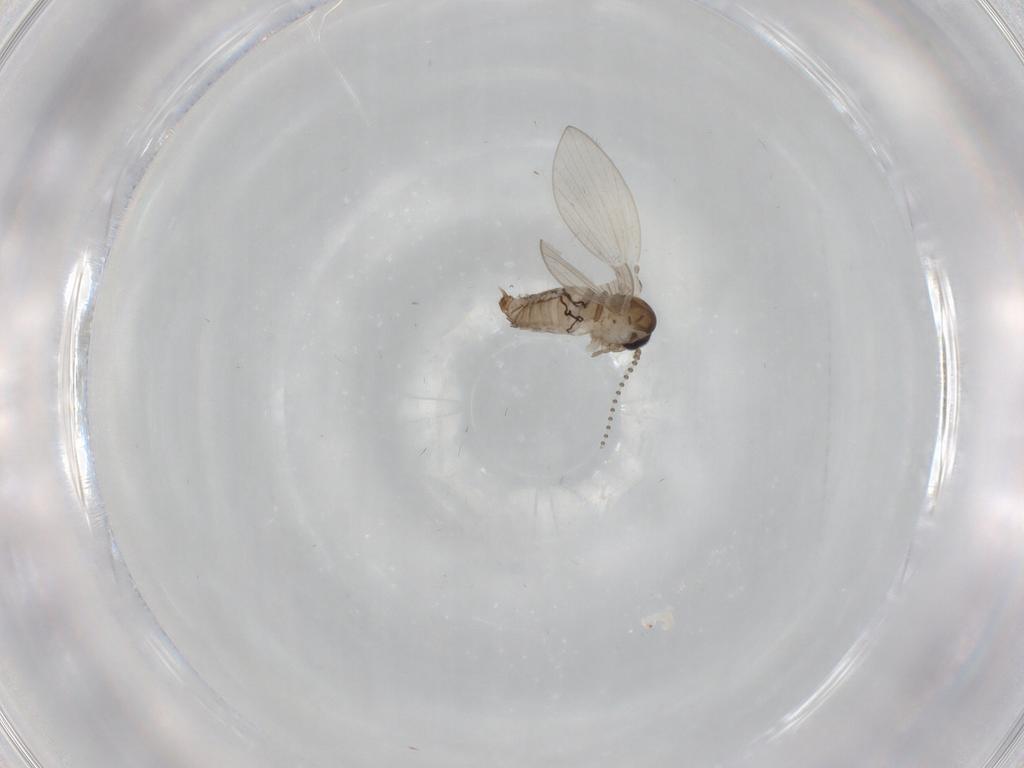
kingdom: Animalia
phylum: Arthropoda
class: Insecta
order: Diptera
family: Psychodidae
